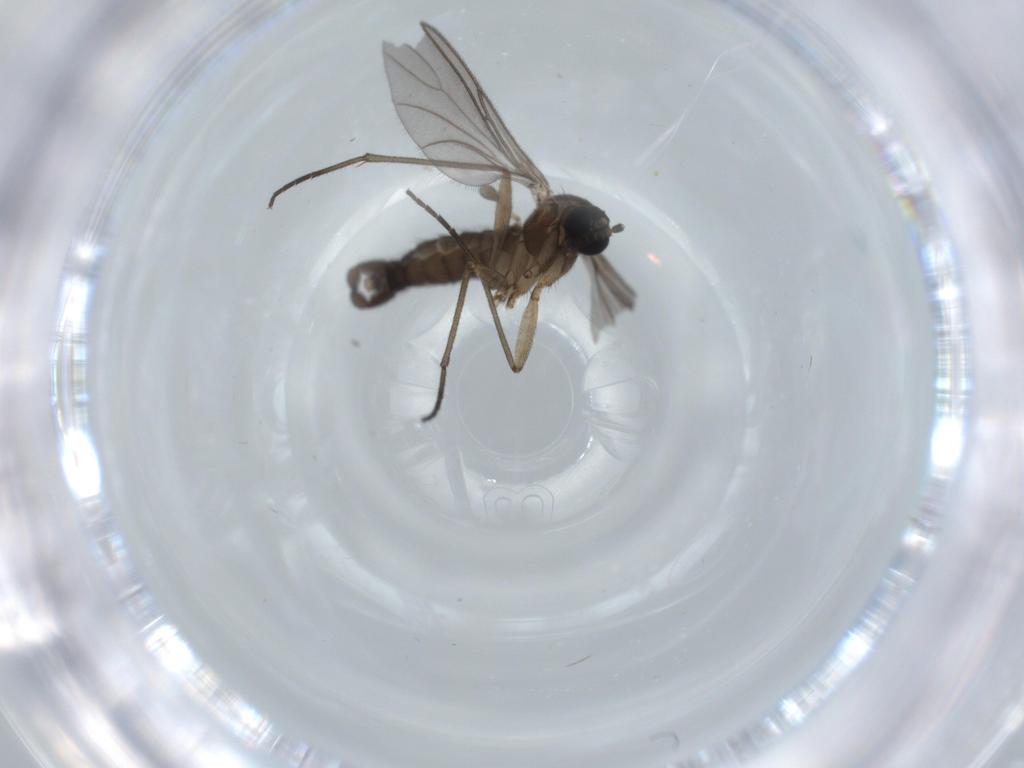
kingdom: Animalia
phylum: Arthropoda
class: Insecta
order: Diptera
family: Sciaridae
